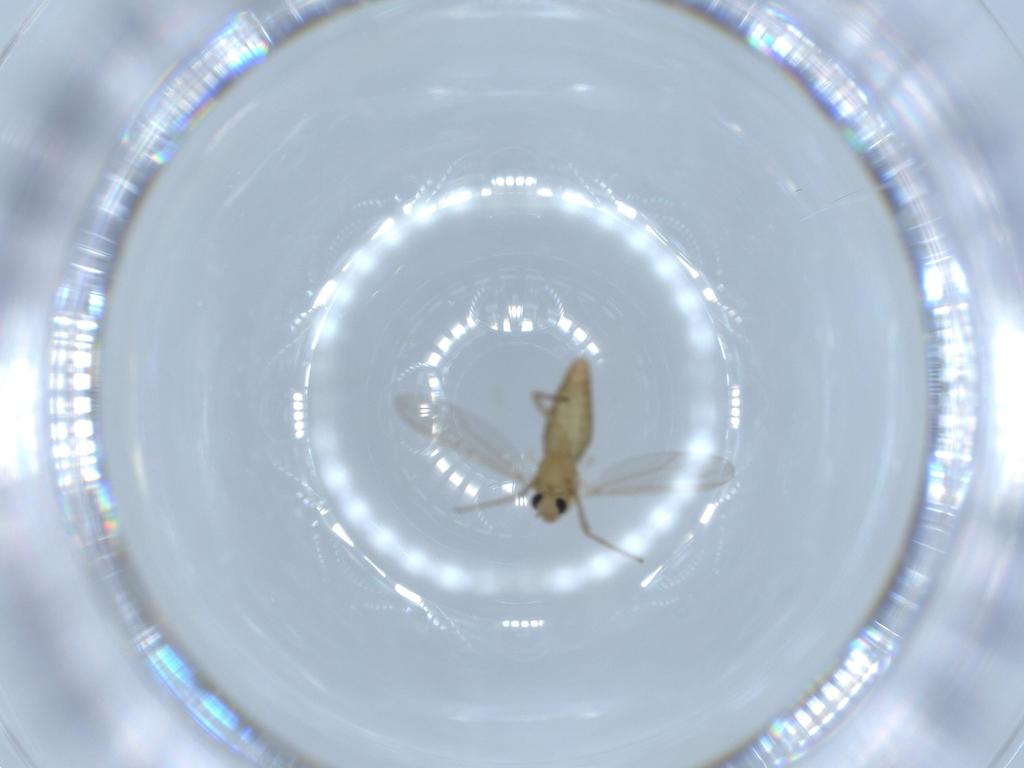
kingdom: Animalia
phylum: Arthropoda
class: Insecta
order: Diptera
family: Chironomidae
